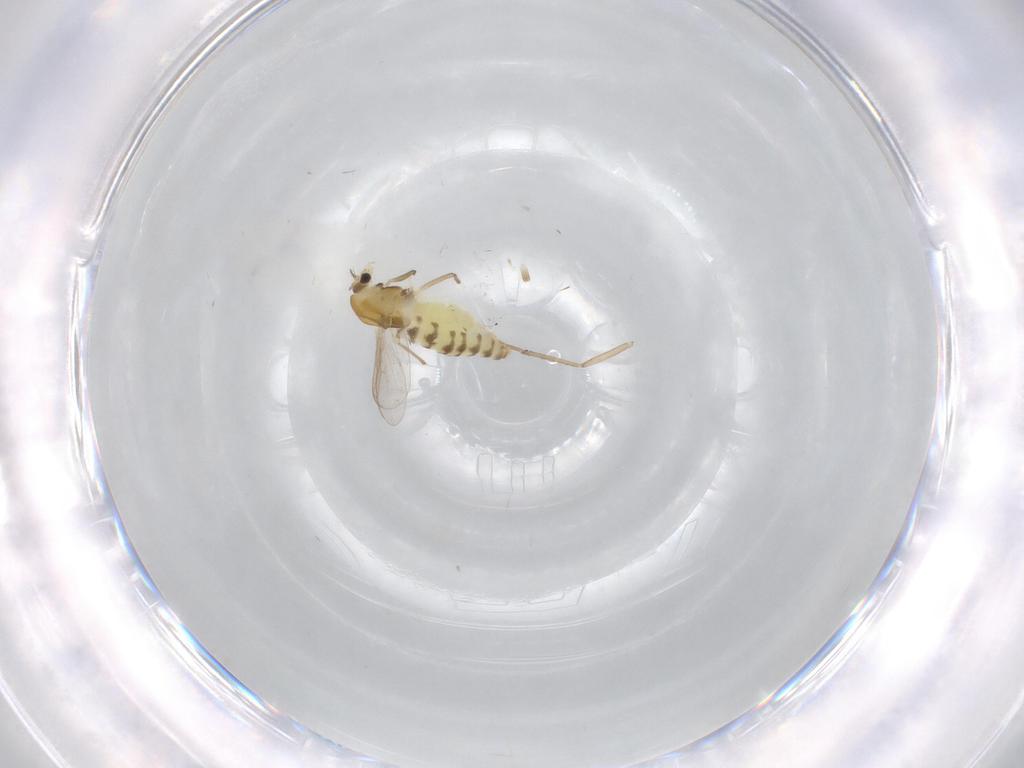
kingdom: Animalia
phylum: Arthropoda
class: Insecta
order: Diptera
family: Chironomidae
